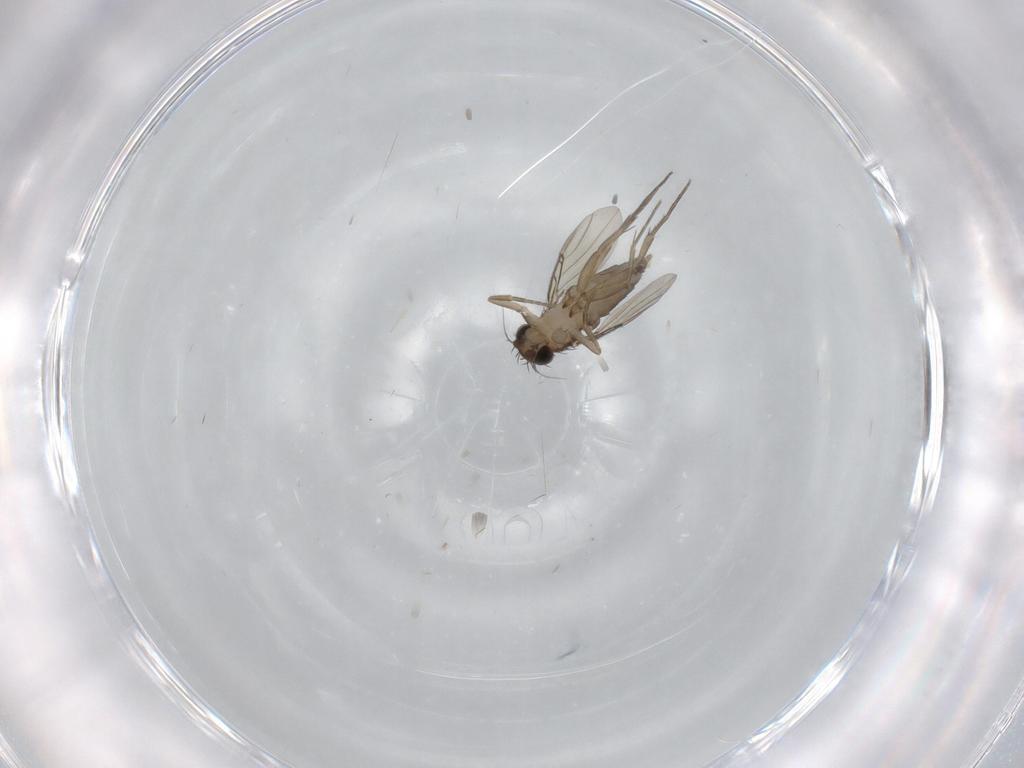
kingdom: Animalia
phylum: Arthropoda
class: Insecta
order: Diptera
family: Phoridae
